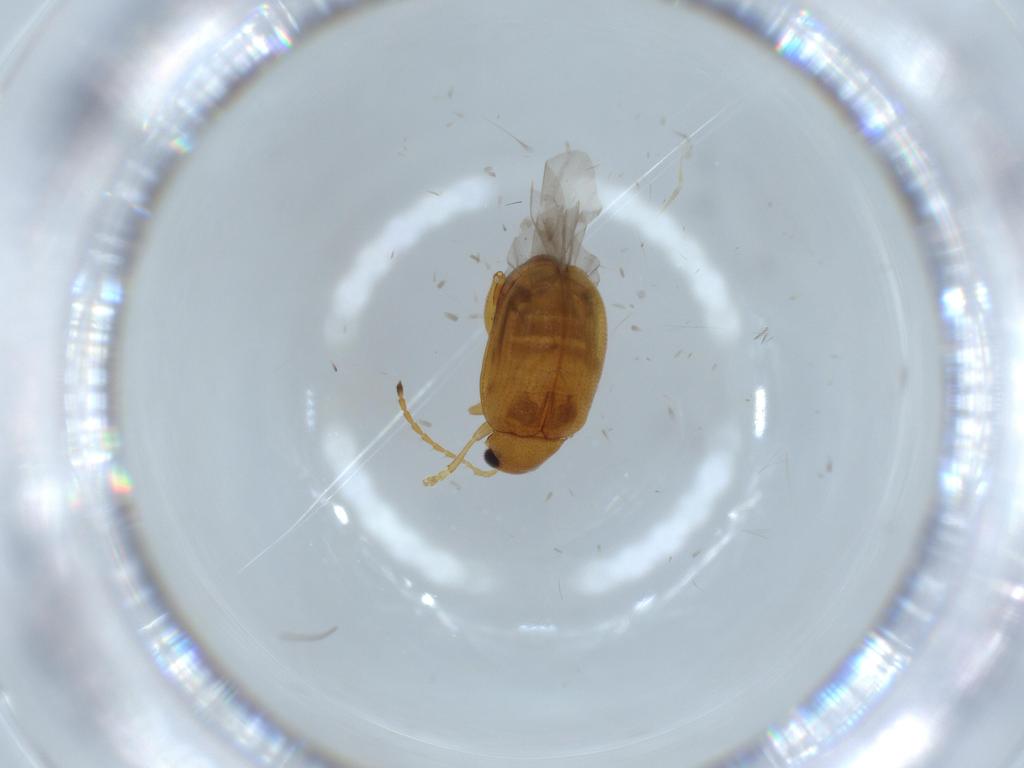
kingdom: Animalia
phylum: Arthropoda
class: Insecta
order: Coleoptera
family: Chrysomelidae
